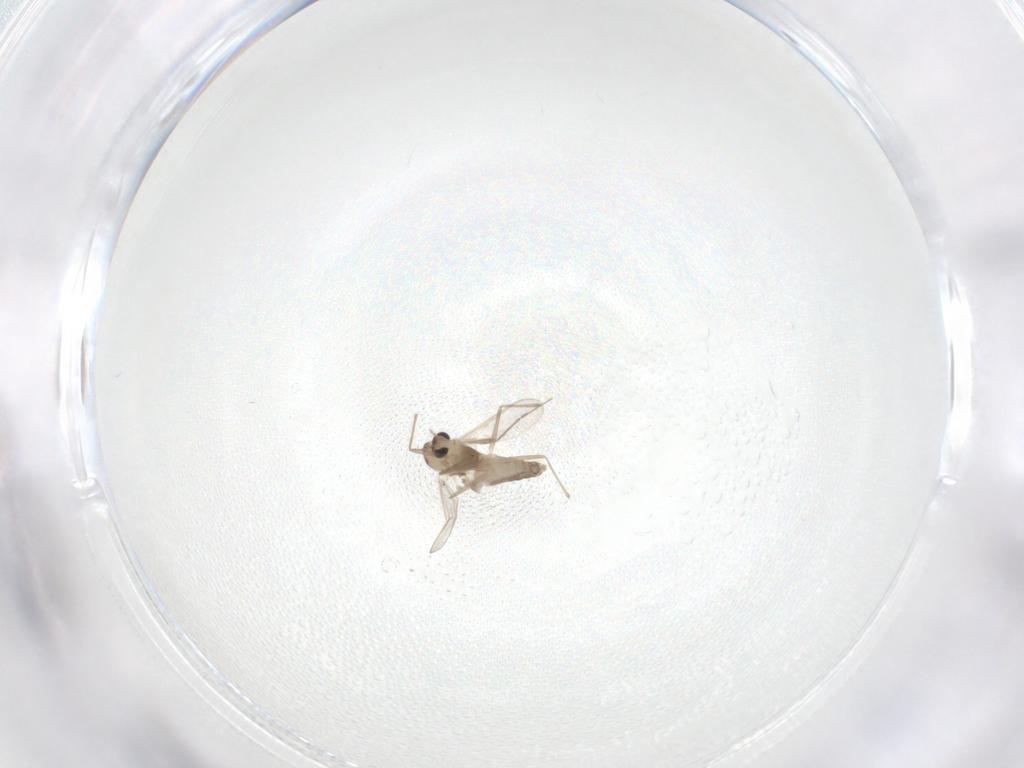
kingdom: Animalia
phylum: Arthropoda
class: Insecta
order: Diptera
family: Chironomidae
